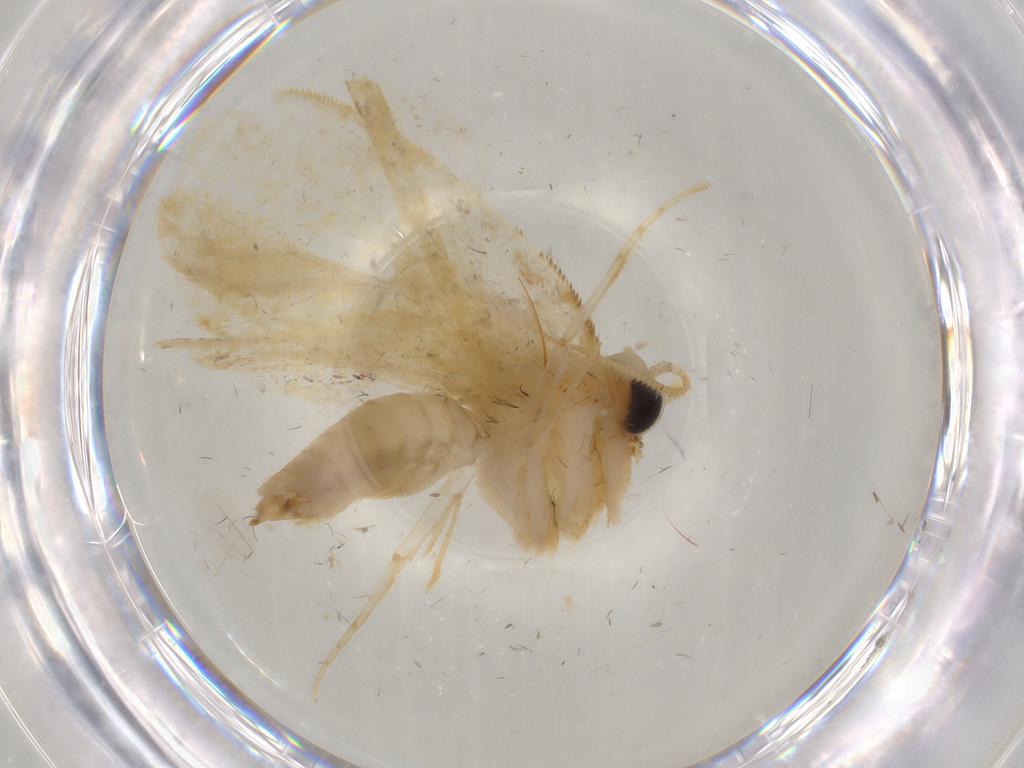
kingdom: Animalia
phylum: Arthropoda
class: Insecta
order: Lepidoptera
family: Psychidae
